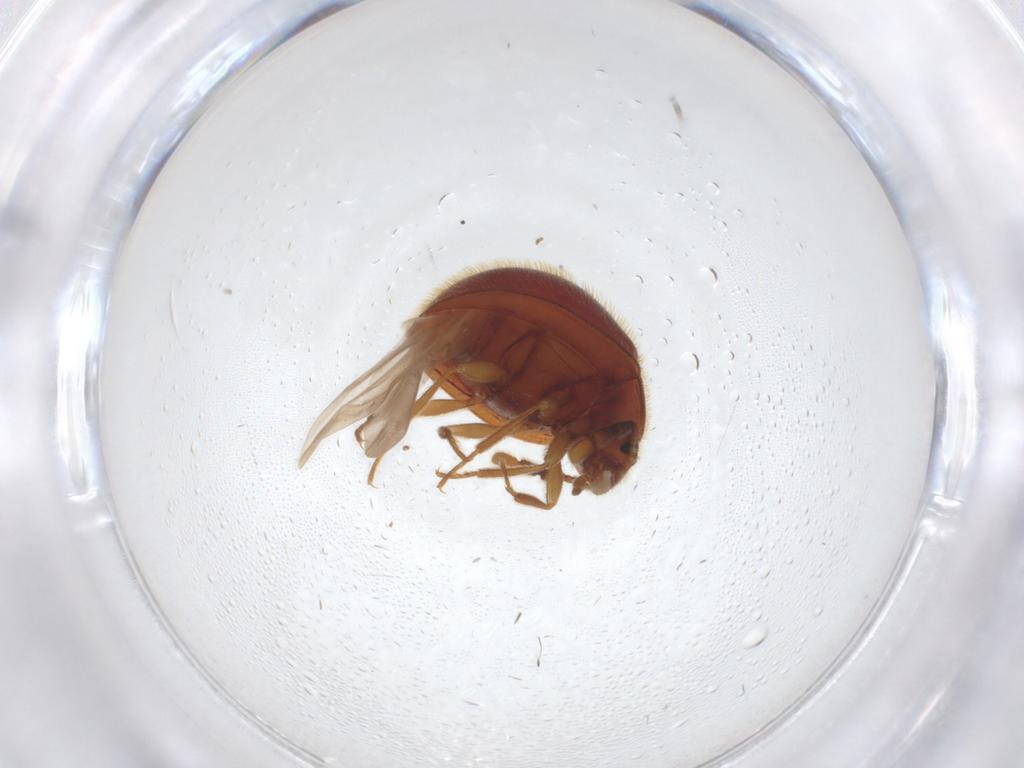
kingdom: Animalia
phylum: Arthropoda
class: Insecta
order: Coleoptera
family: Anamorphidae
